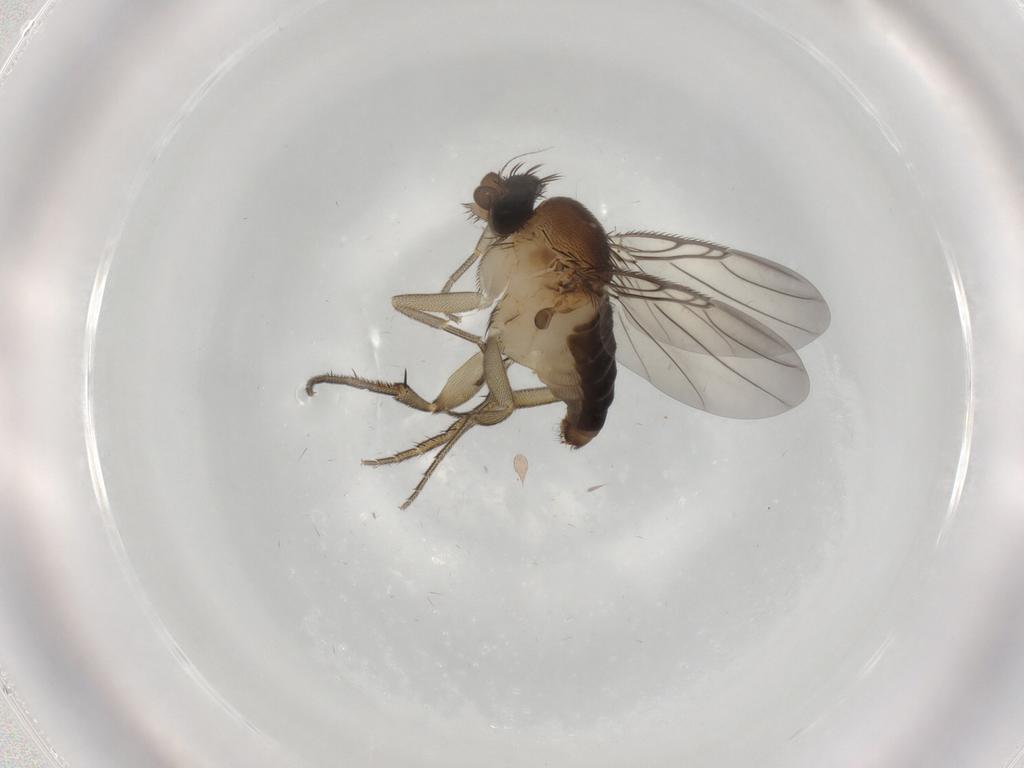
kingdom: Animalia
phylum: Arthropoda
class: Insecta
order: Diptera
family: Phoridae
